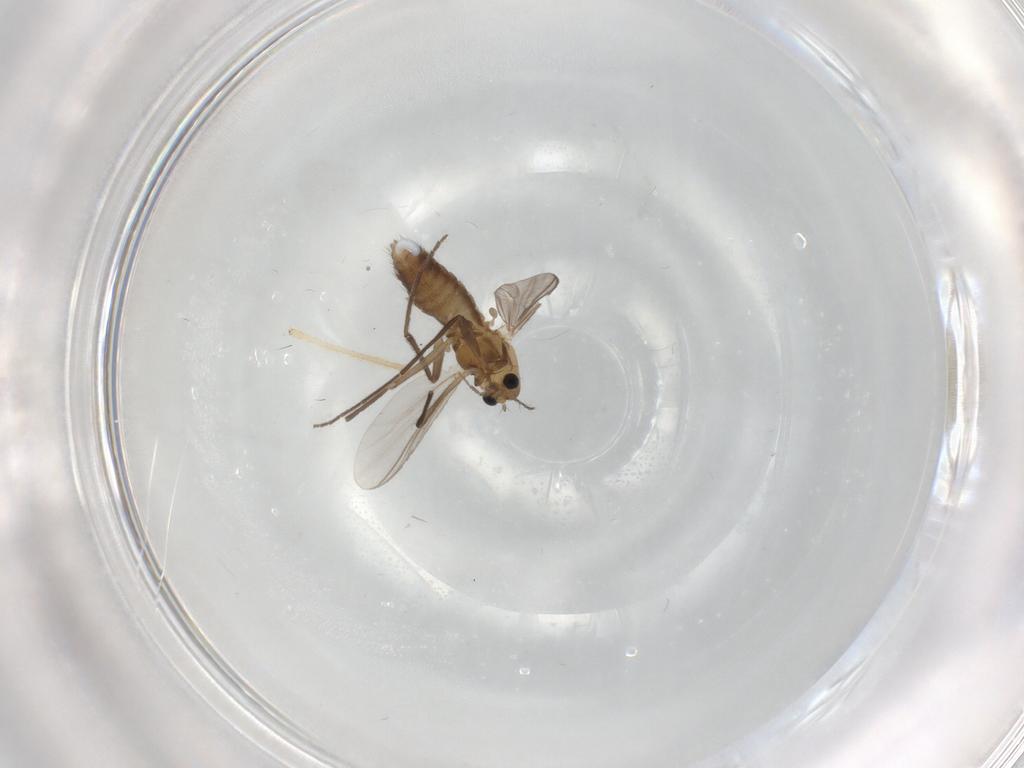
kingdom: Animalia
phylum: Arthropoda
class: Insecta
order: Diptera
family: Chironomidae
